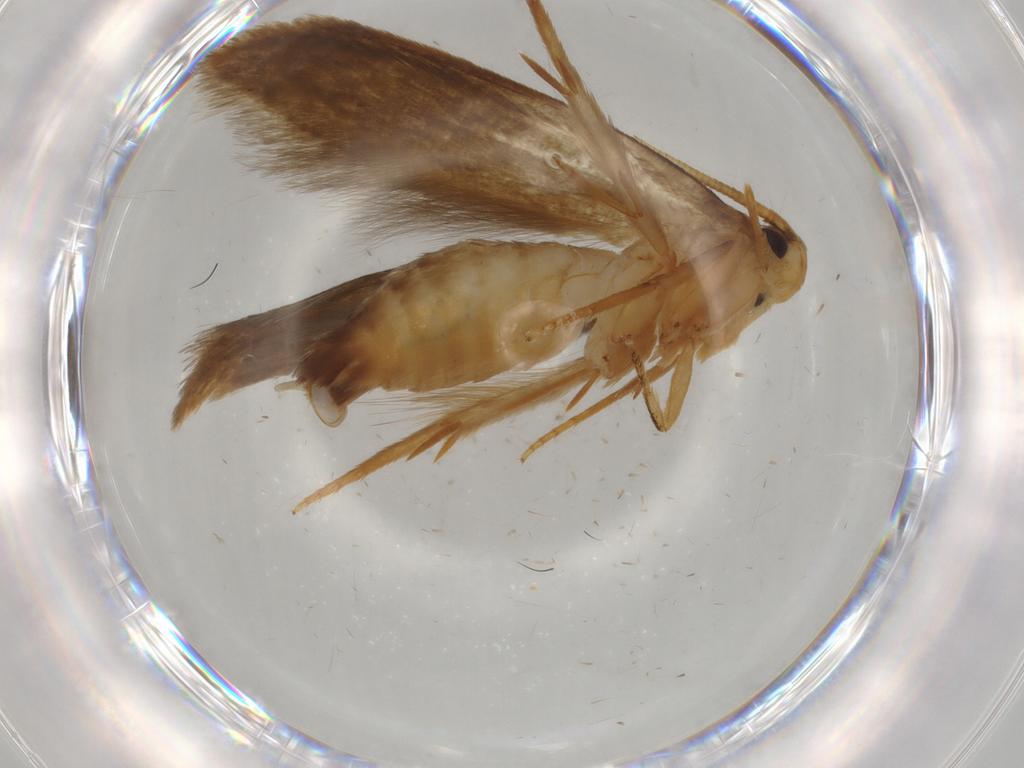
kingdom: Animalia
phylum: Arthropoda
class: Insecta
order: Lepidoptera
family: Tineidae
